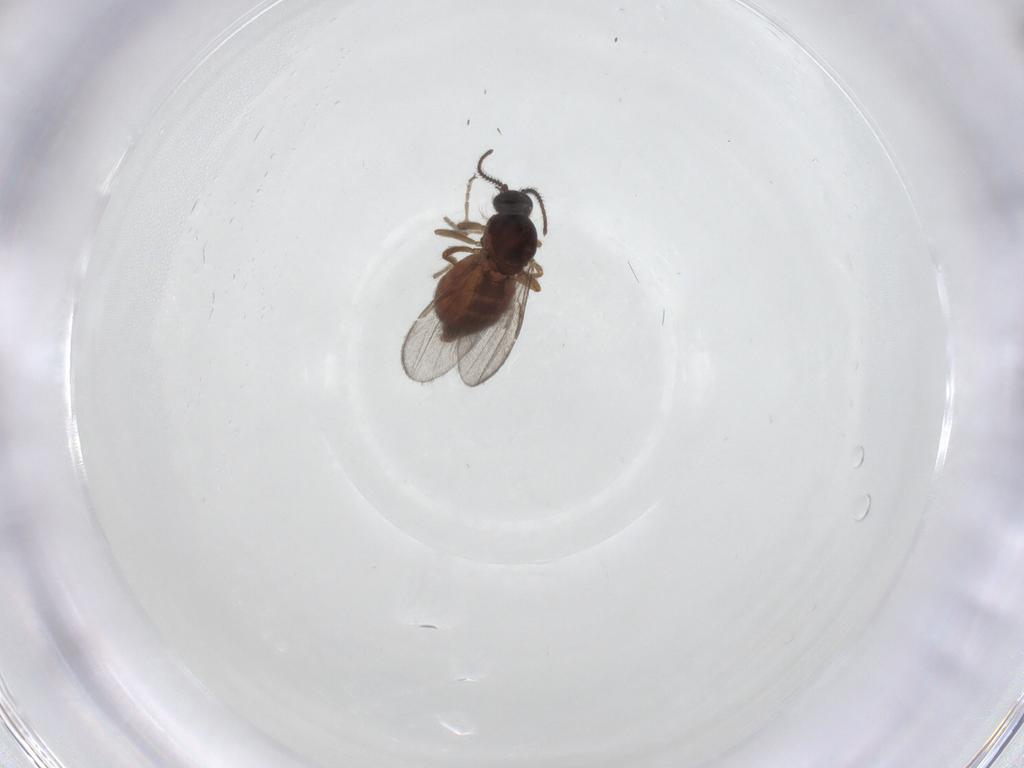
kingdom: Animalia
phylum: Arthropoda
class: Insecta
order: Diptera
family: Ceratopogonidae
